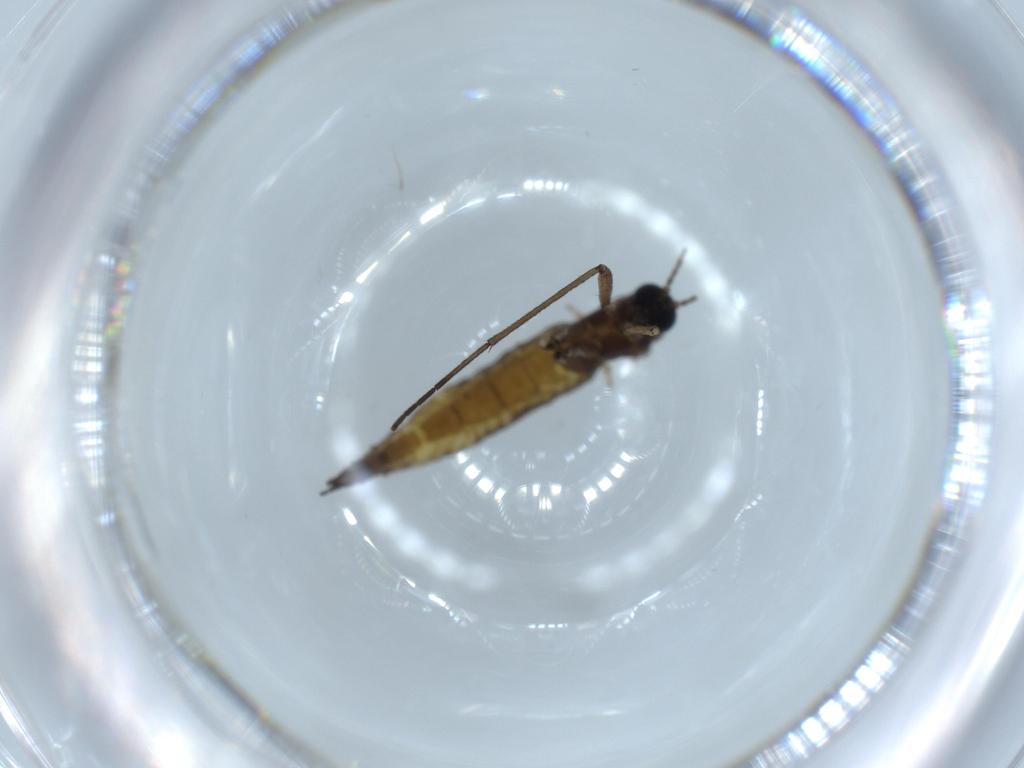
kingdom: Animalia
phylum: Arthropoda
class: Insecta
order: Diptera
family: Sciaridae
